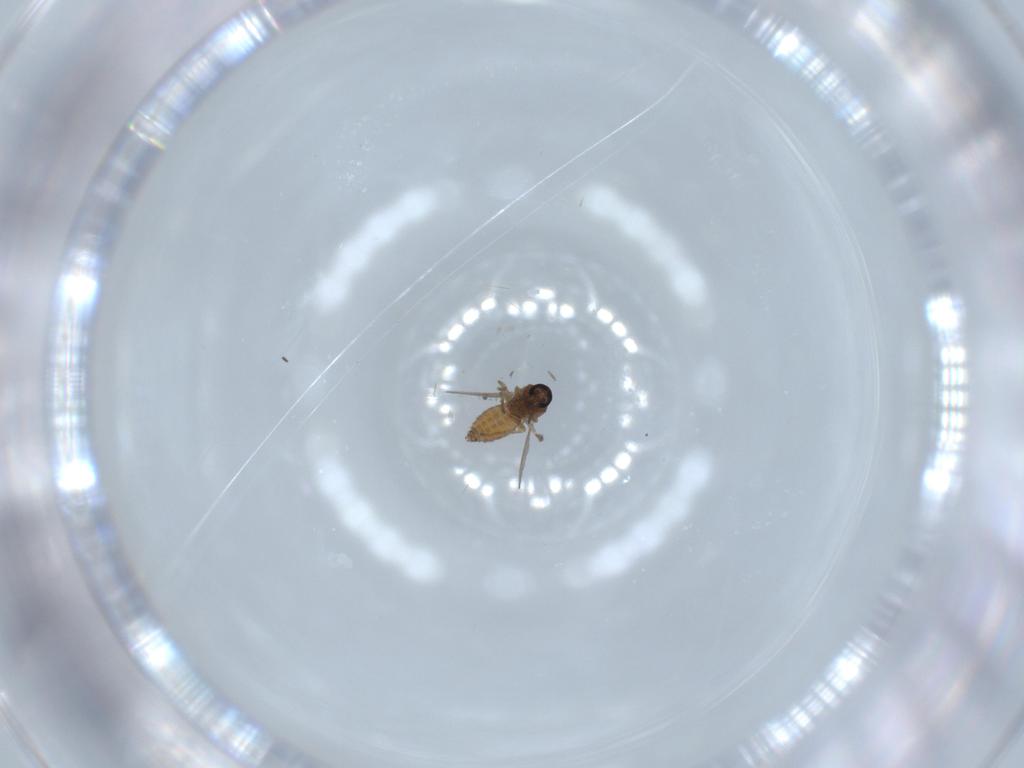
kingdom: Animalia
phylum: Arthropoda
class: Insecta
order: Diptera
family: Ceratopogonidae
